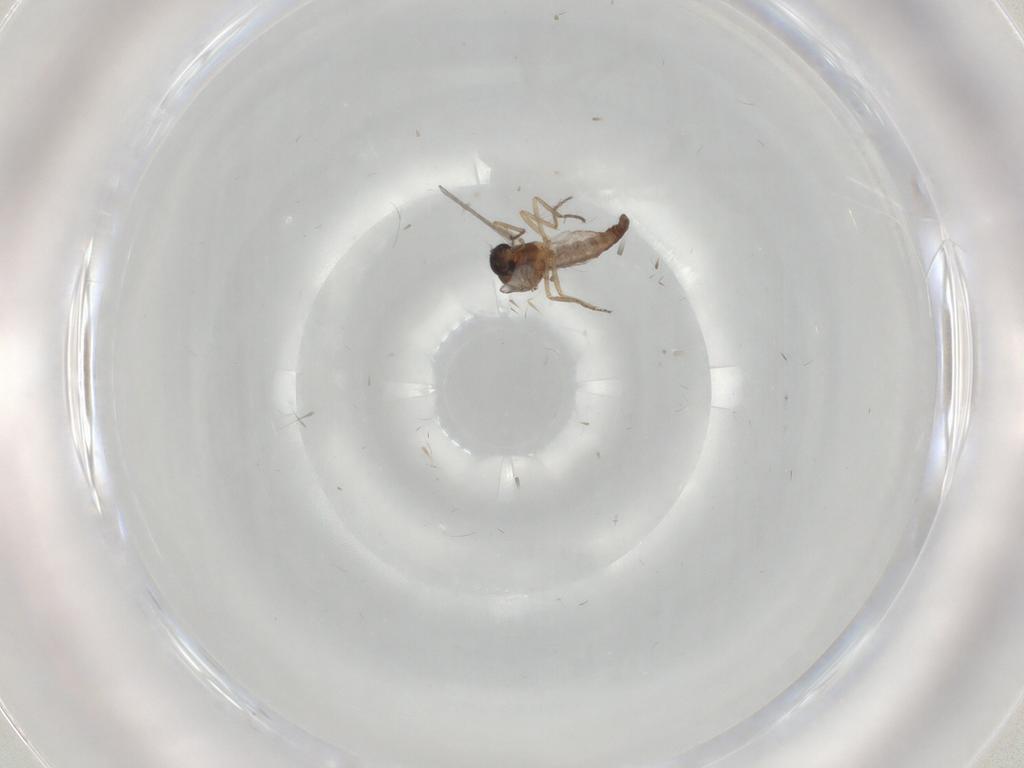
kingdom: Animalia
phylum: Arthropoda
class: Insecta
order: Diptera
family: Ceratopogonidae
